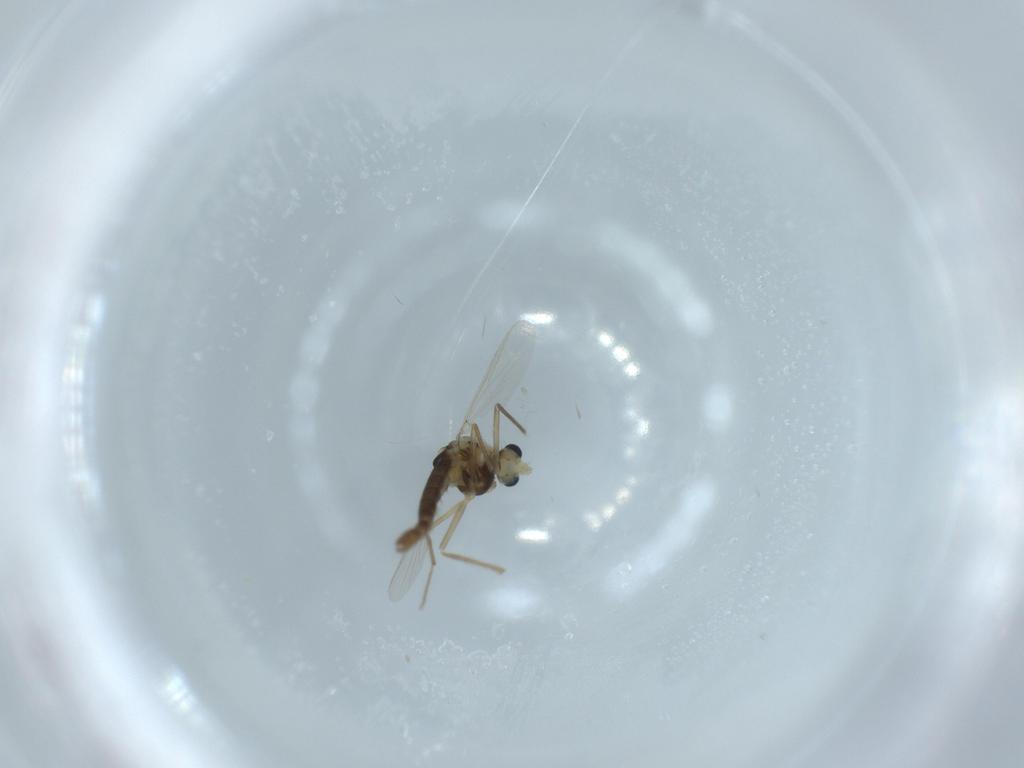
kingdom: Animalia
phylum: Arthropoda
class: Insecta
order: Diptera
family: Chironomidae
